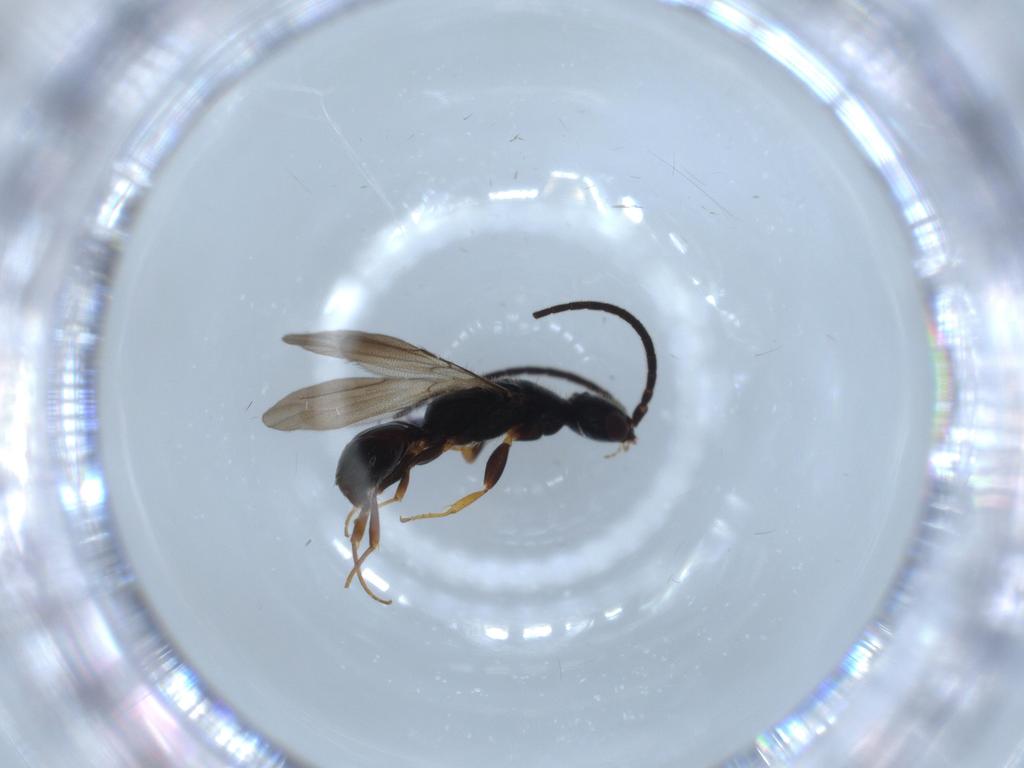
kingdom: Animalia
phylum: Arthropoda
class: Insecta
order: Hymenoptera
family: Bethylidae
